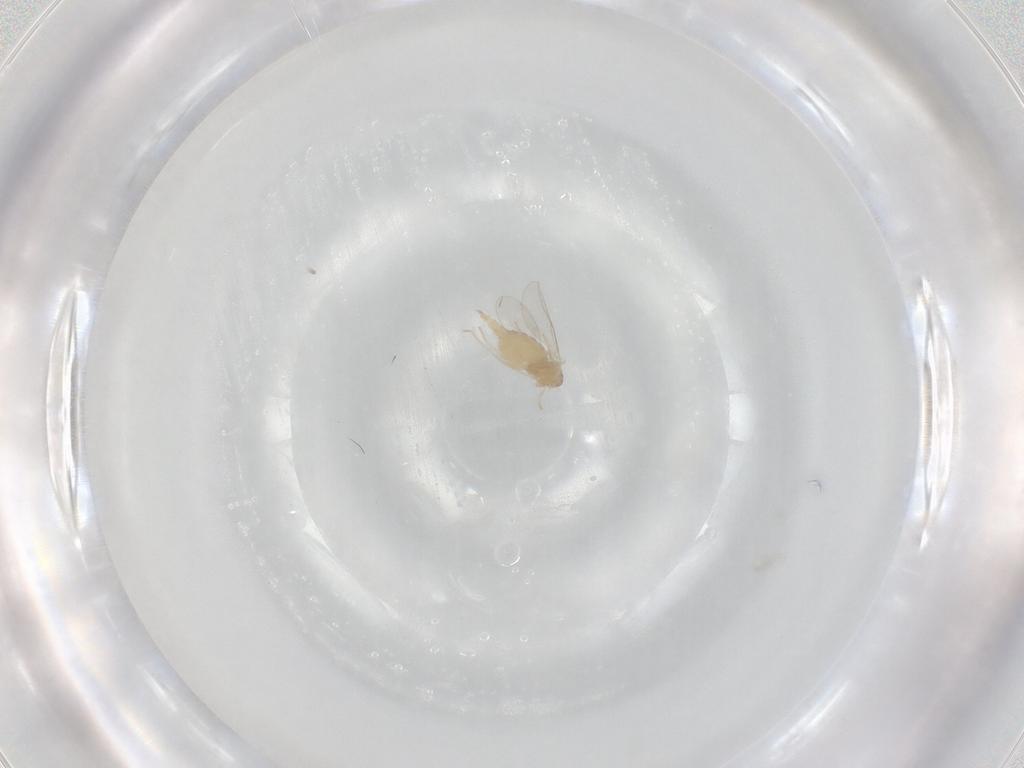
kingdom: Animalia
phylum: Arthropoda
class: Insecta
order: Diptera
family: Cecidomyiidae
